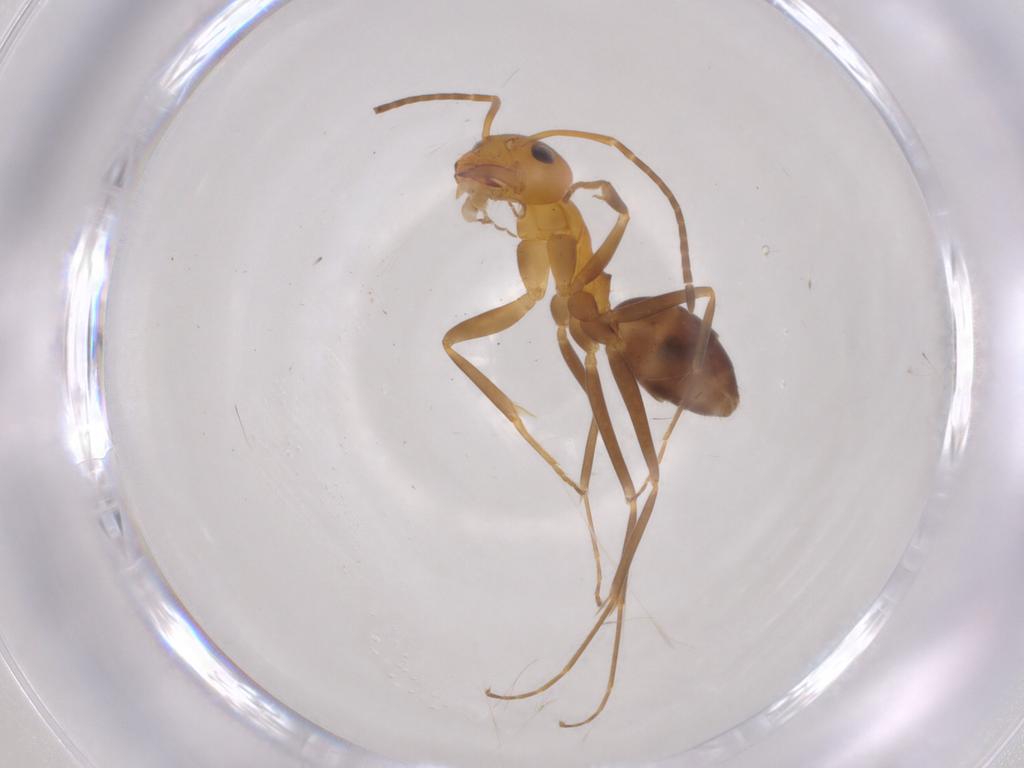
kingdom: Animalia
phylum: Arthropoda
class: Insecta
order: Hymenoptera
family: Formicidae
